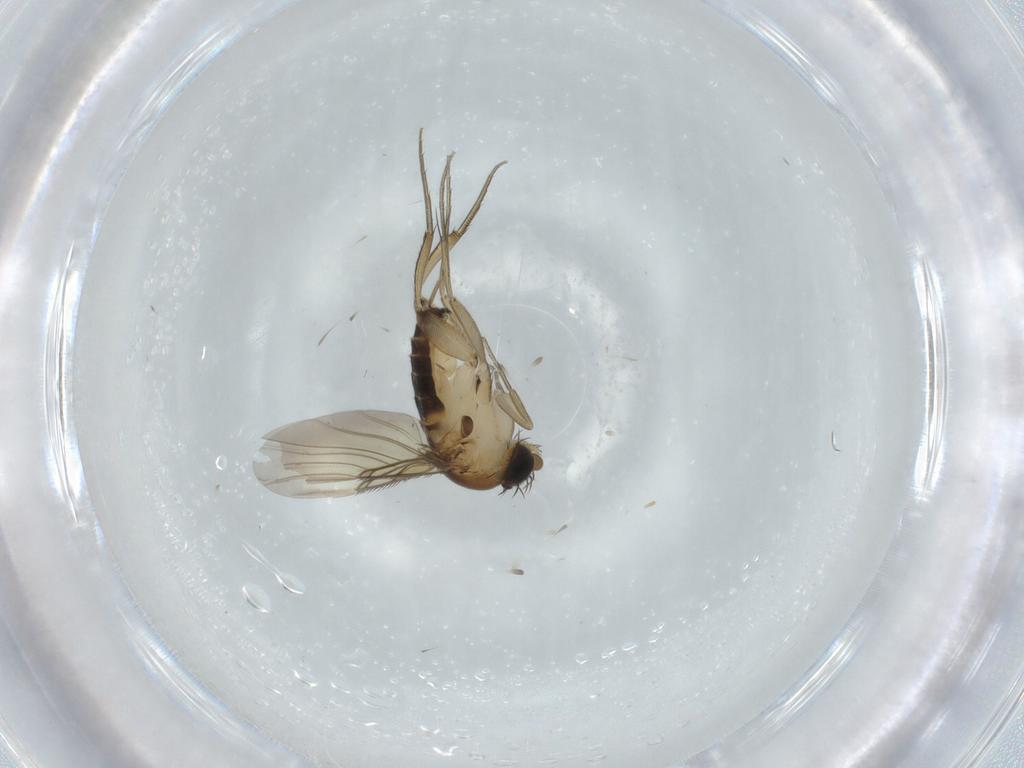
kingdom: Animalia
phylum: Arthropoda
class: Insecta
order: Diptera
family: Phoridae
